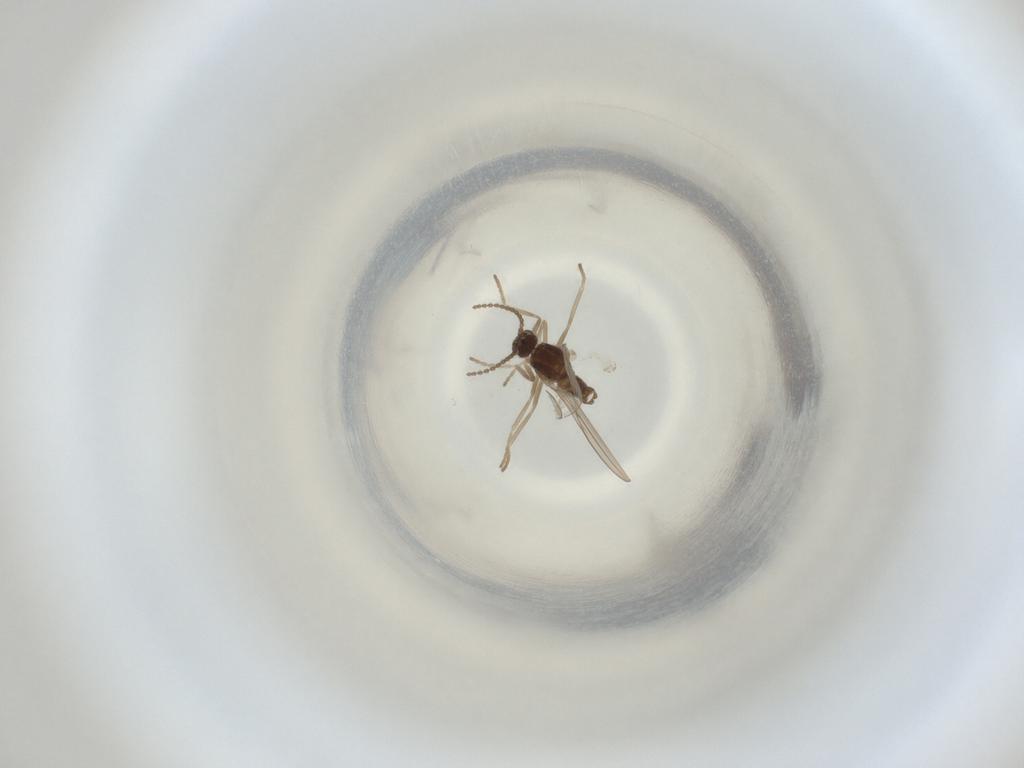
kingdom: Animalia
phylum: Arthropoda
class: Insecta
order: Diptera
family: Cecidomyiidae
